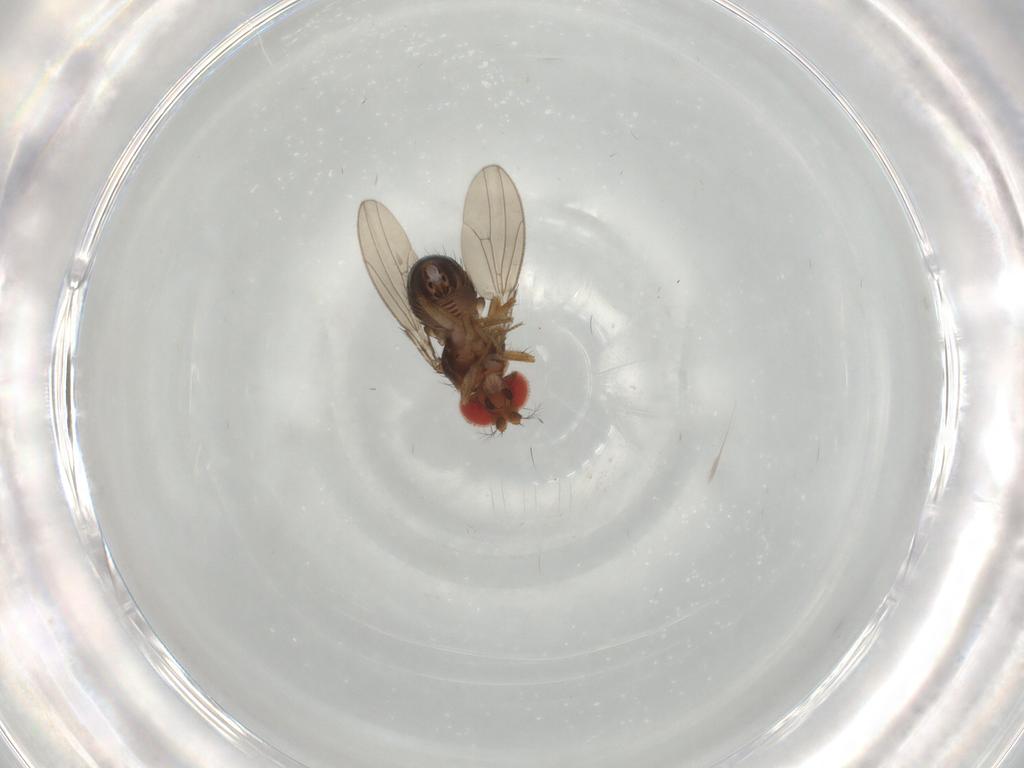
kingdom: Animalia
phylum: Arthropoda
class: Insecta
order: Diptera
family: Drosophilidae
